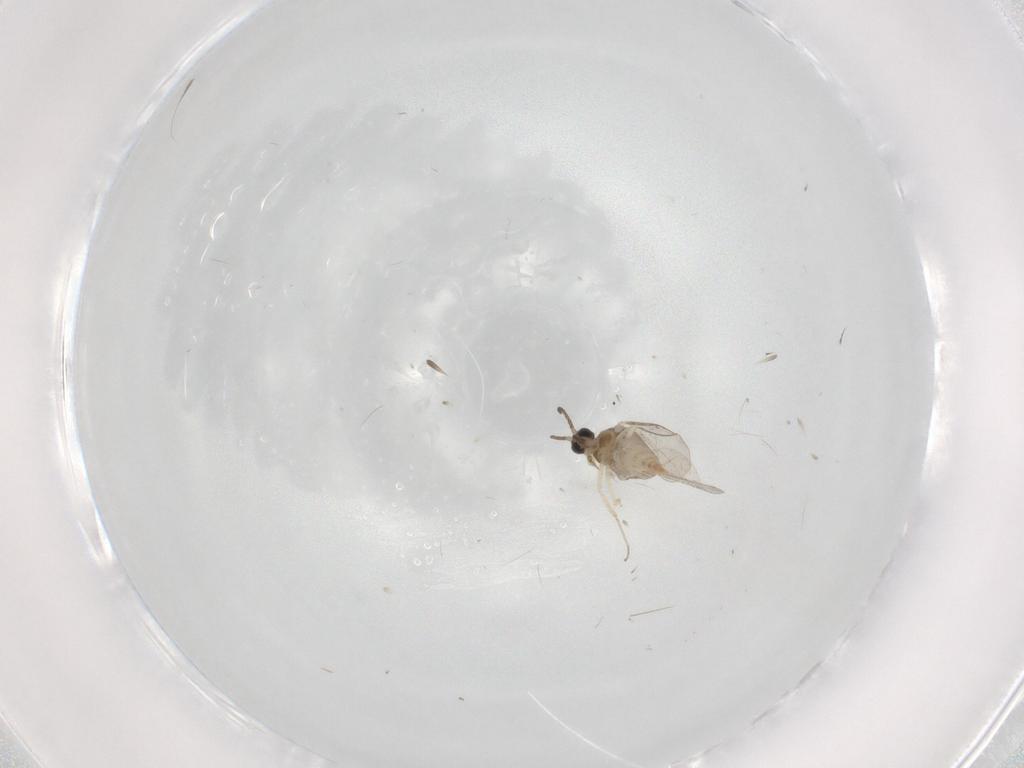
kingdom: Animalia
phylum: Arthropoda
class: Insecta
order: Diptera
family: Cecidomyiidae
